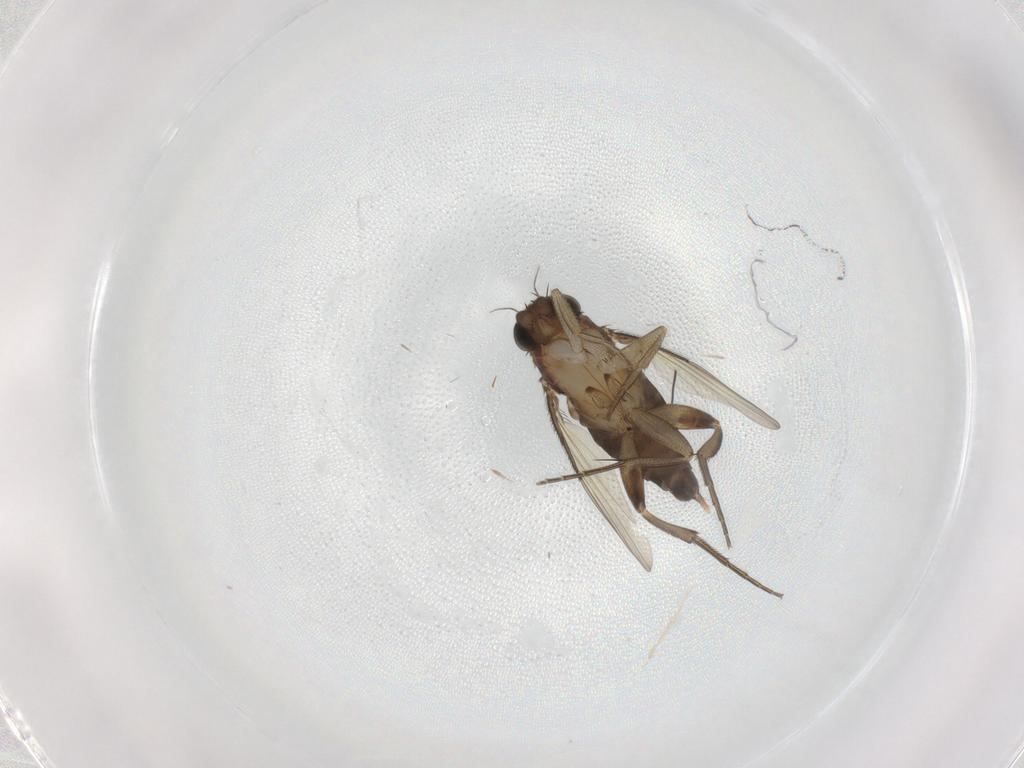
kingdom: Animalia
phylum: Arthropoda
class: Insecta
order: Diptera
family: Phoridae
